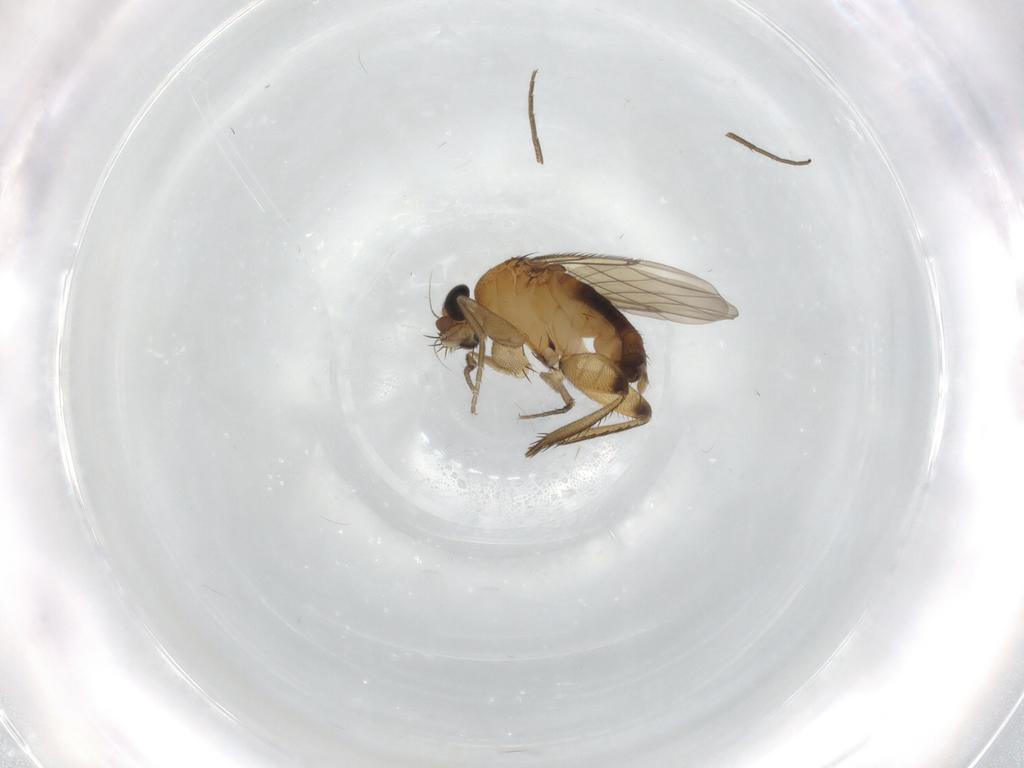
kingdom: Animalia
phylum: Arthropoda
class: Insecta
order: Diptera
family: Phoridae
